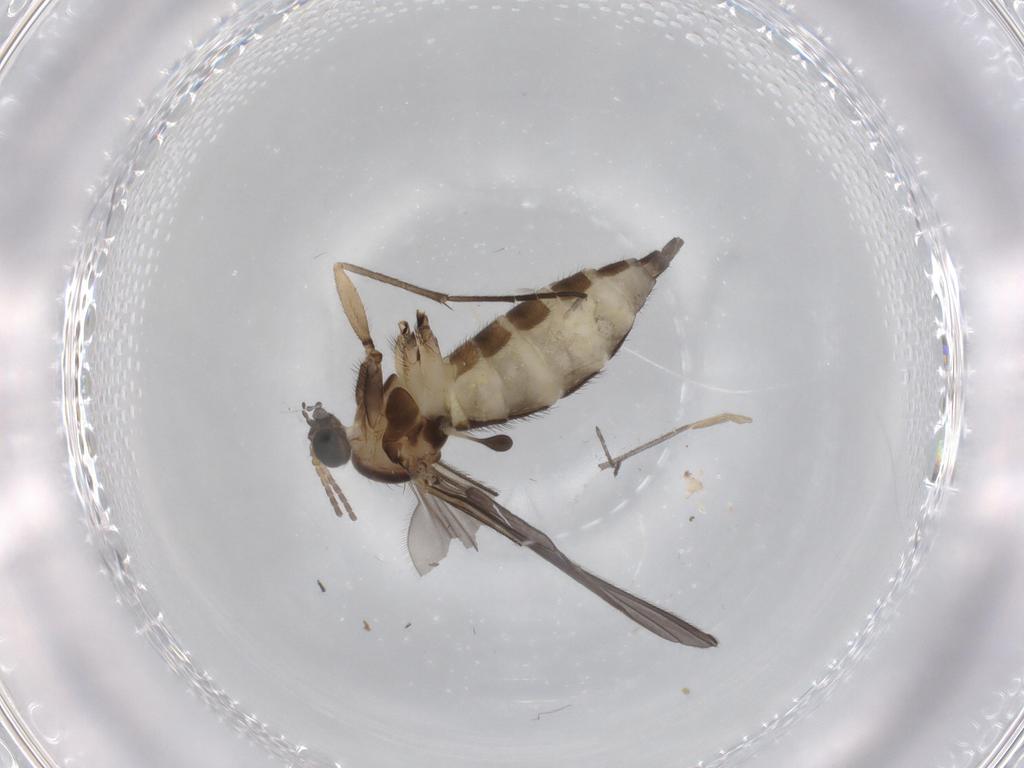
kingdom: Animalia
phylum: Arthropoda
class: Insecta
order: Diptera
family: Sciaridae
